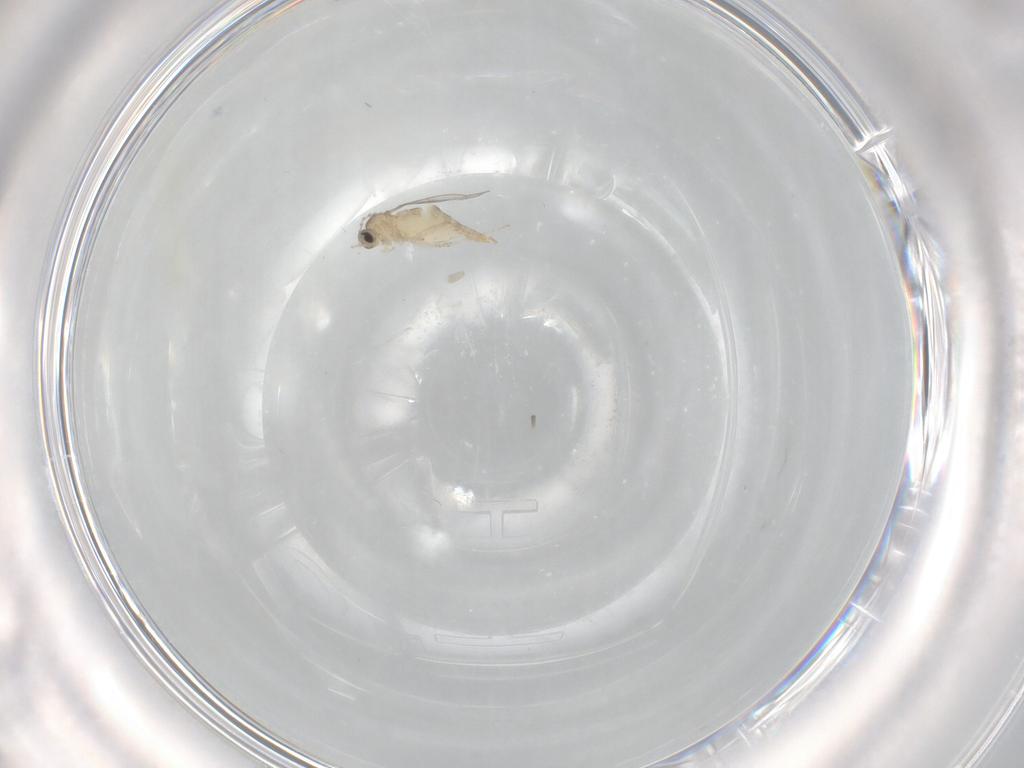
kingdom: Animalia
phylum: Arthropoda
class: Insecta
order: Diptera
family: Cecidomyiidae
